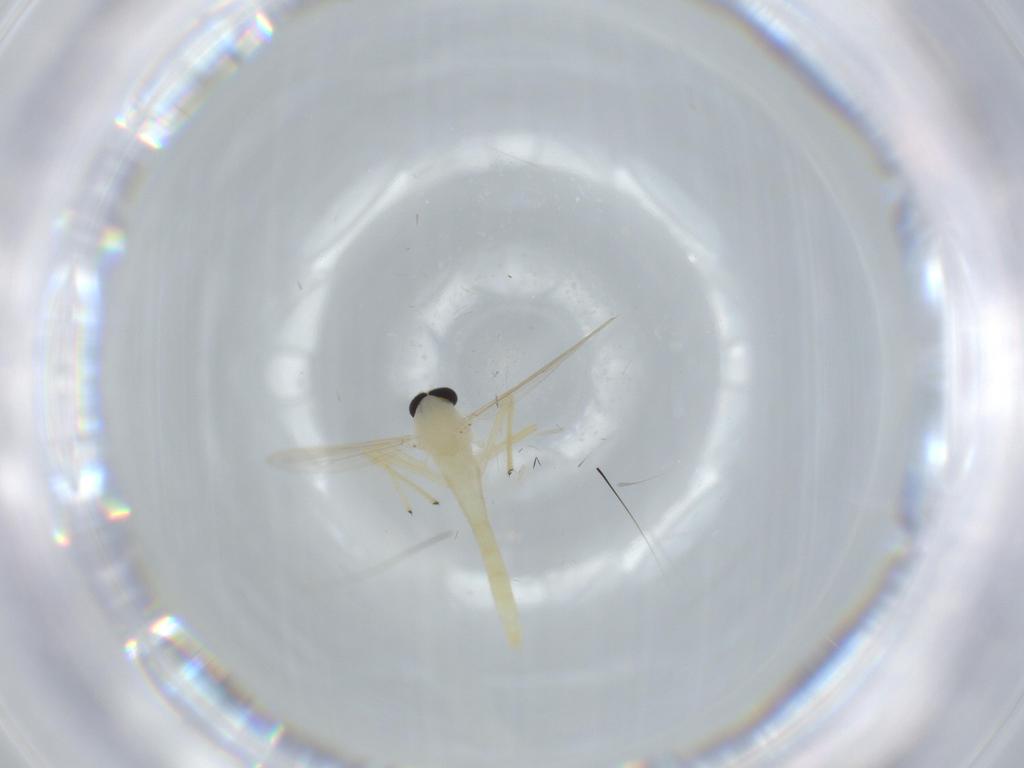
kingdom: Animalia
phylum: Arthropoda
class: Insecta
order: Diptera
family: Chironomidae
